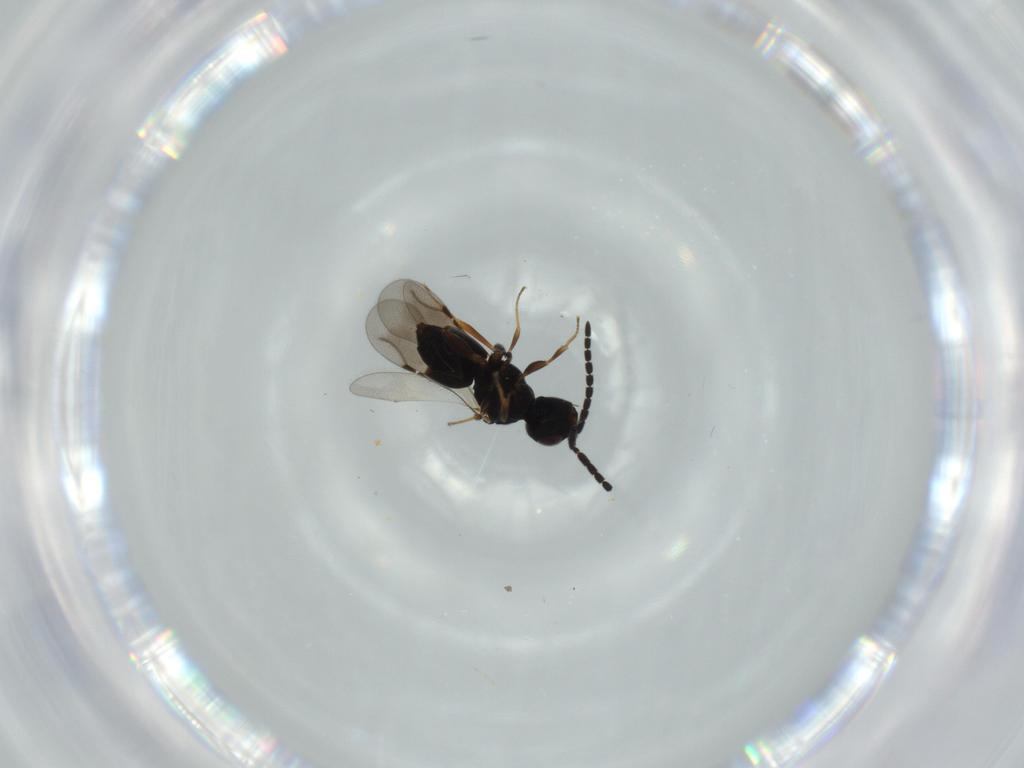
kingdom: Animalia
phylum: Arthropoda
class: Insecta
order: Hymenoptera
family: Ceraphronidae
